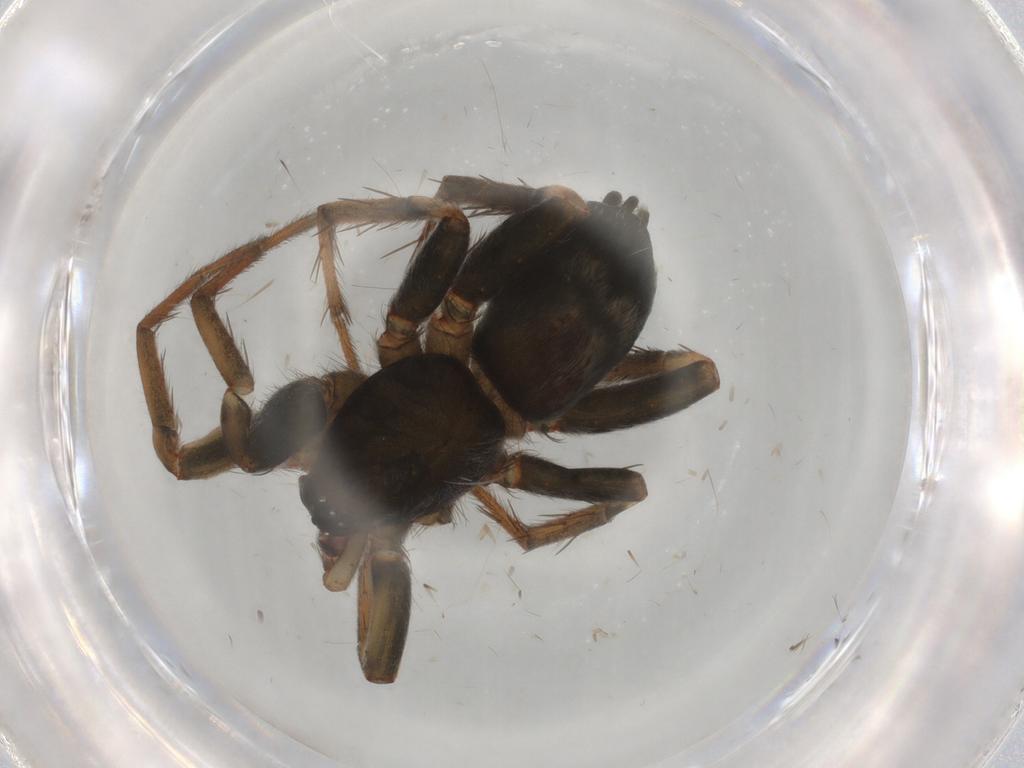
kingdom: Animalia
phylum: Arthropoda
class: Arachnida
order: Araneae
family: Gnaphosidae
